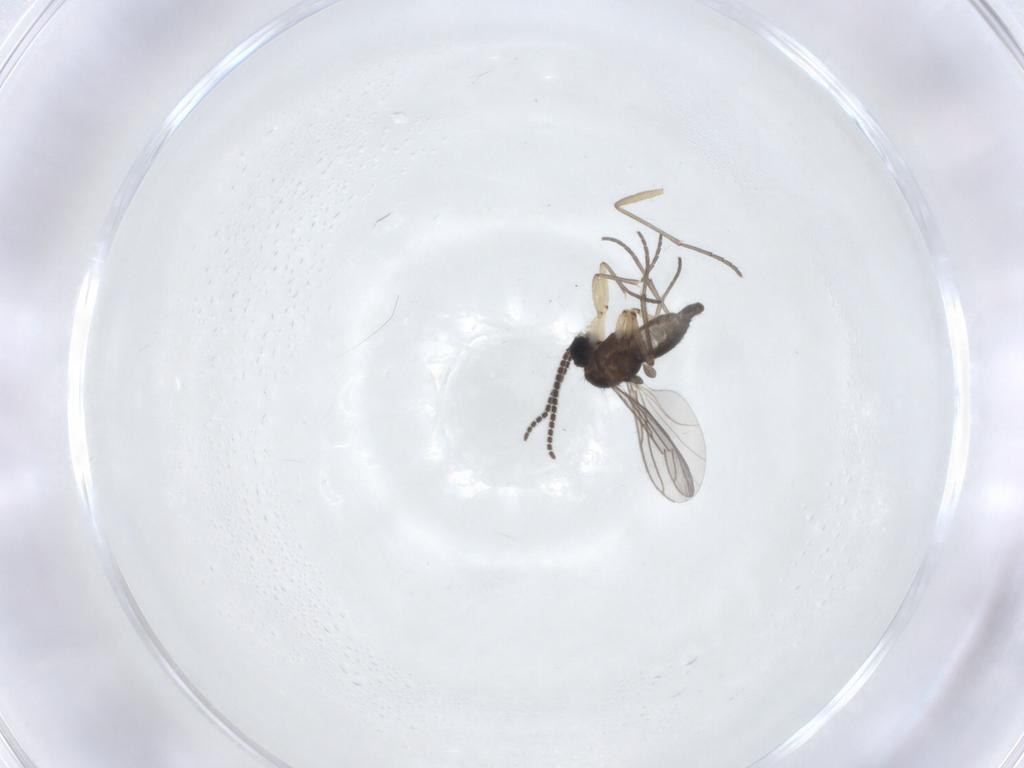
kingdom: Animalia
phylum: Arthropoda
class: Insecta
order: Diptera
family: Sciaridae
